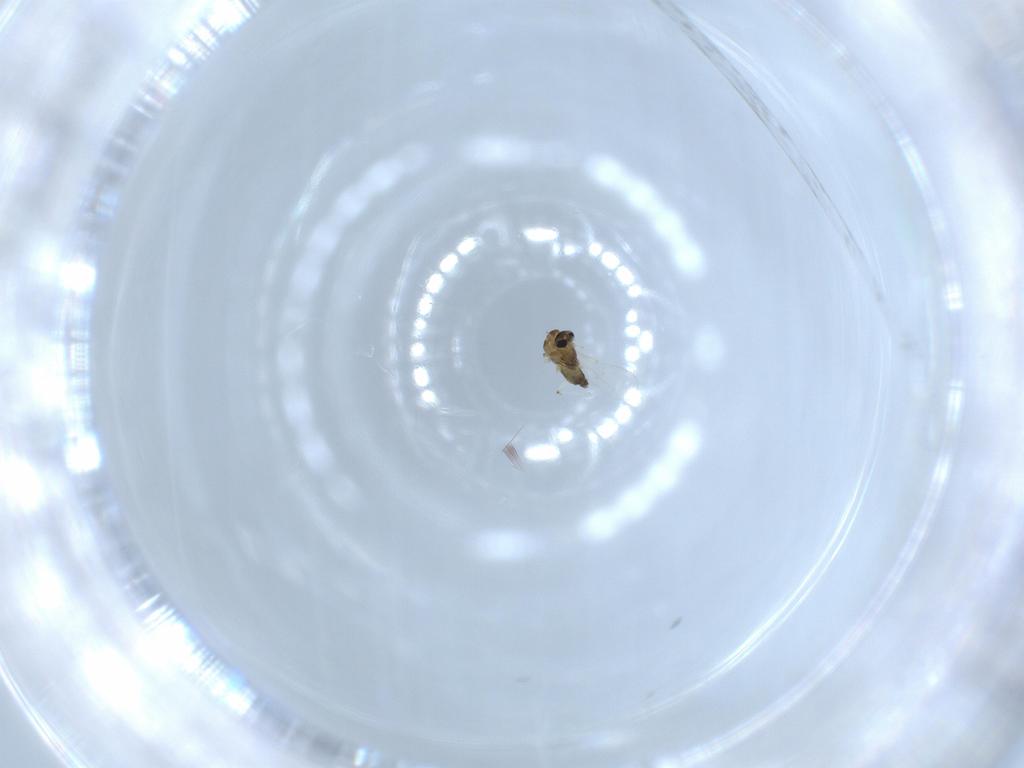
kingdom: Animalia
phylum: Arthropoda
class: Insecta
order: Diptera
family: Chironomidae
